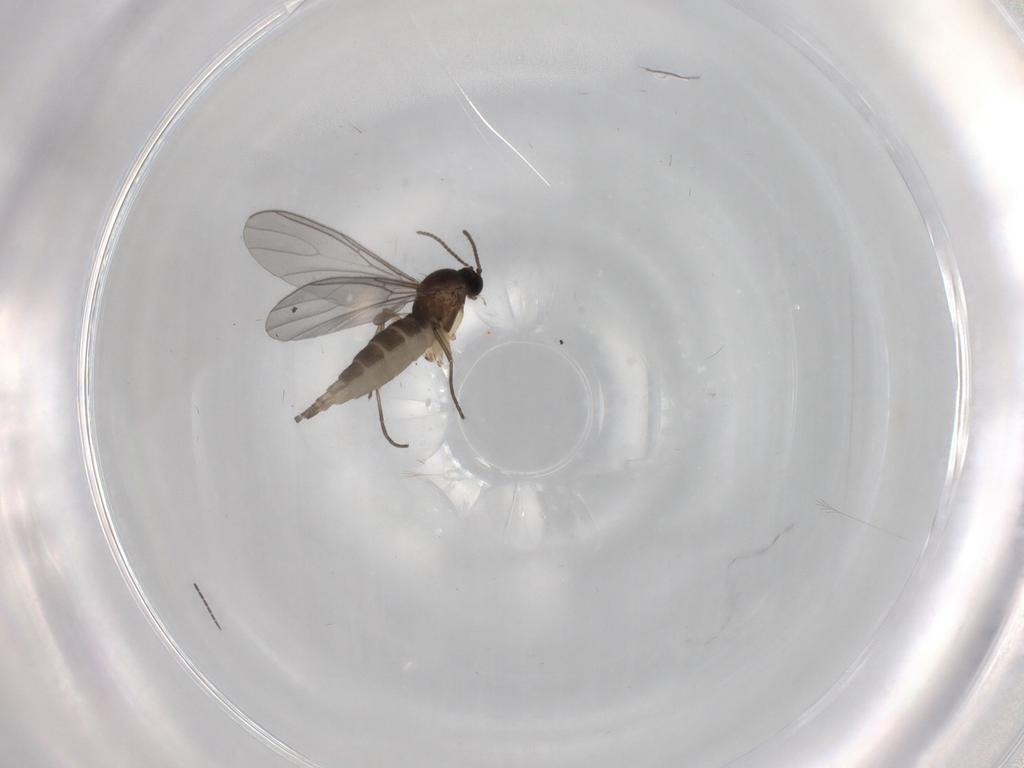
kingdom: Animalia
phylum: Arthropoda
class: Insecta
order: Diptera
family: Sciaridae
